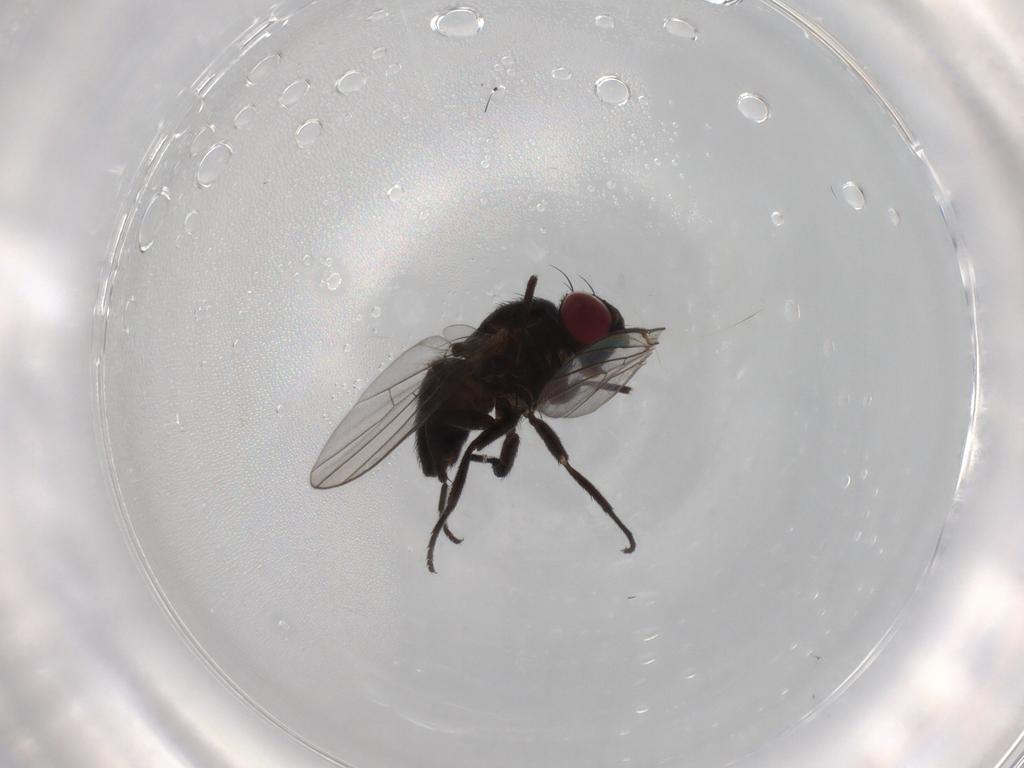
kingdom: Animalia
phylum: Arthropoda
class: Insecta
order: Diptera
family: Agromyzidae
